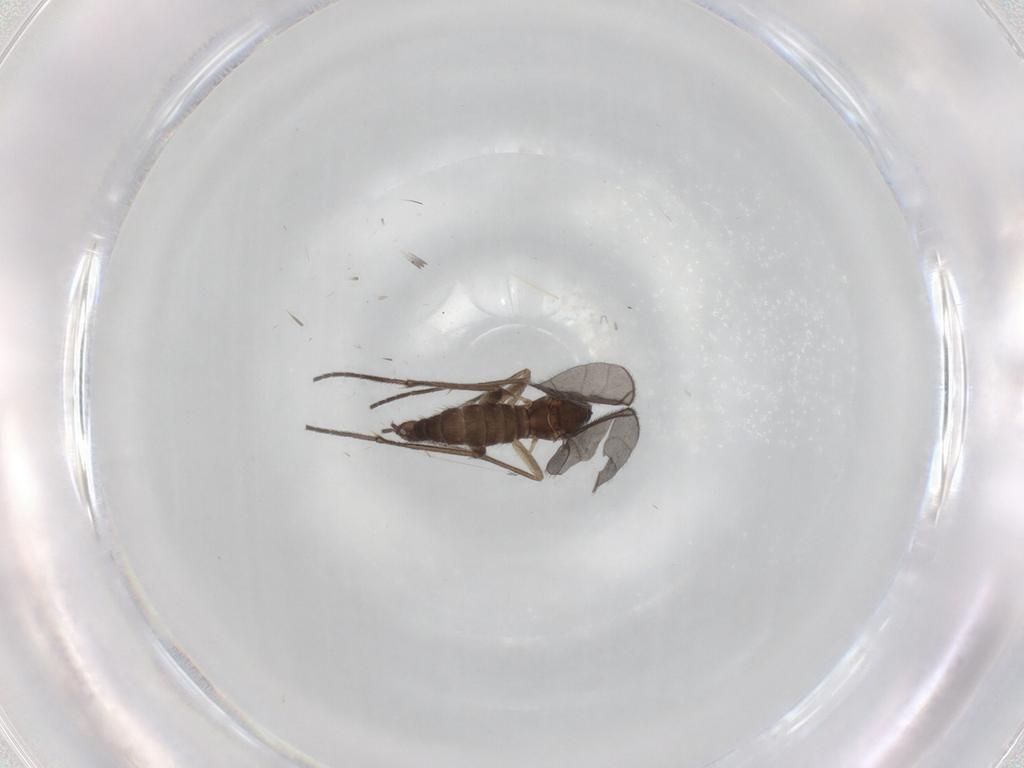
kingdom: Animalia
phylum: Arthropoda
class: Insecta
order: Diptera
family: Sciaridae
